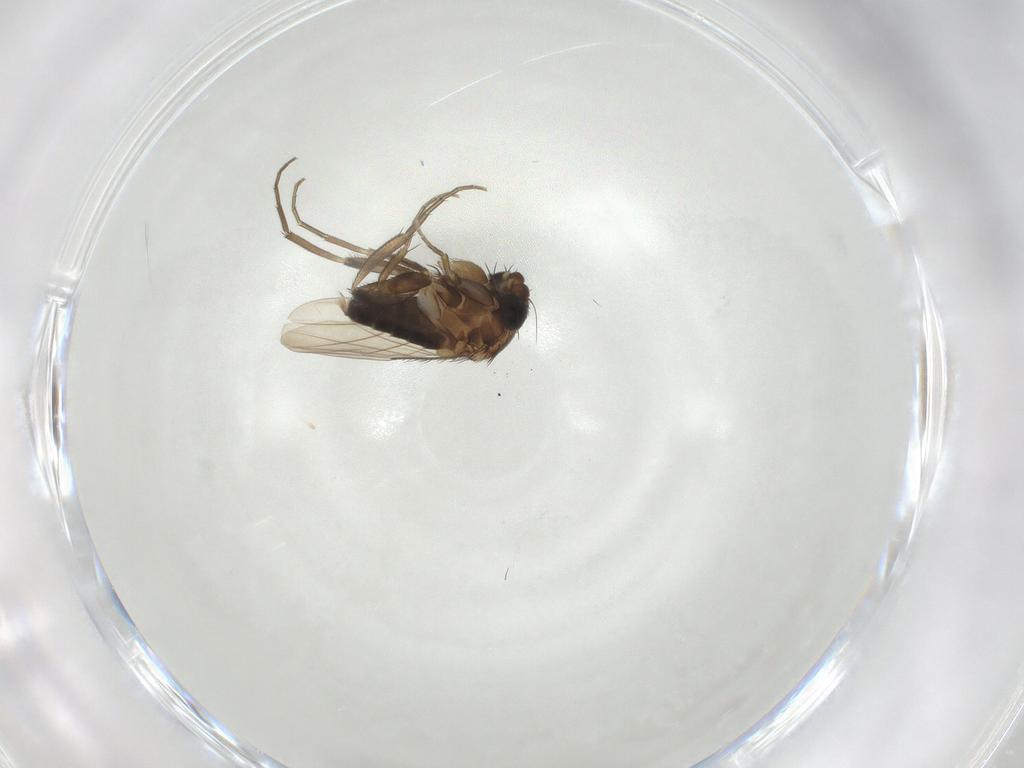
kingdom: Animalia
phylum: Arthropoda
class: Insecta
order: Diptera
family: Phoridae
